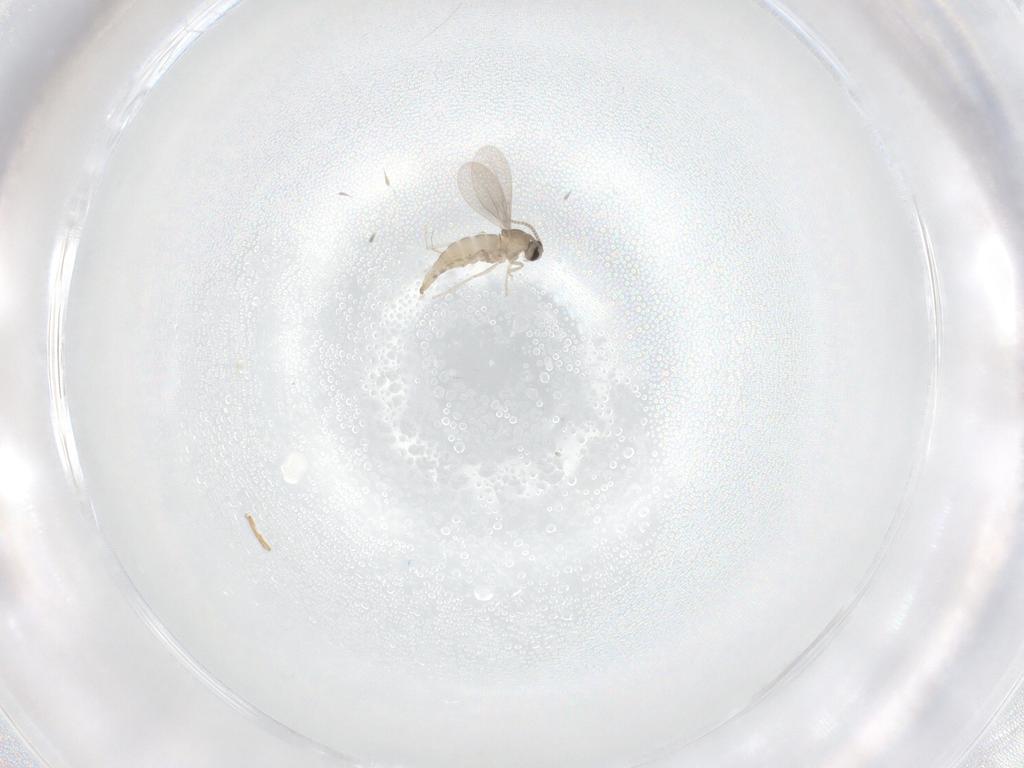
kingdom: Animalia
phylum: Arthropoda
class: Insecta
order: Diptera
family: Cecidomyiidae
